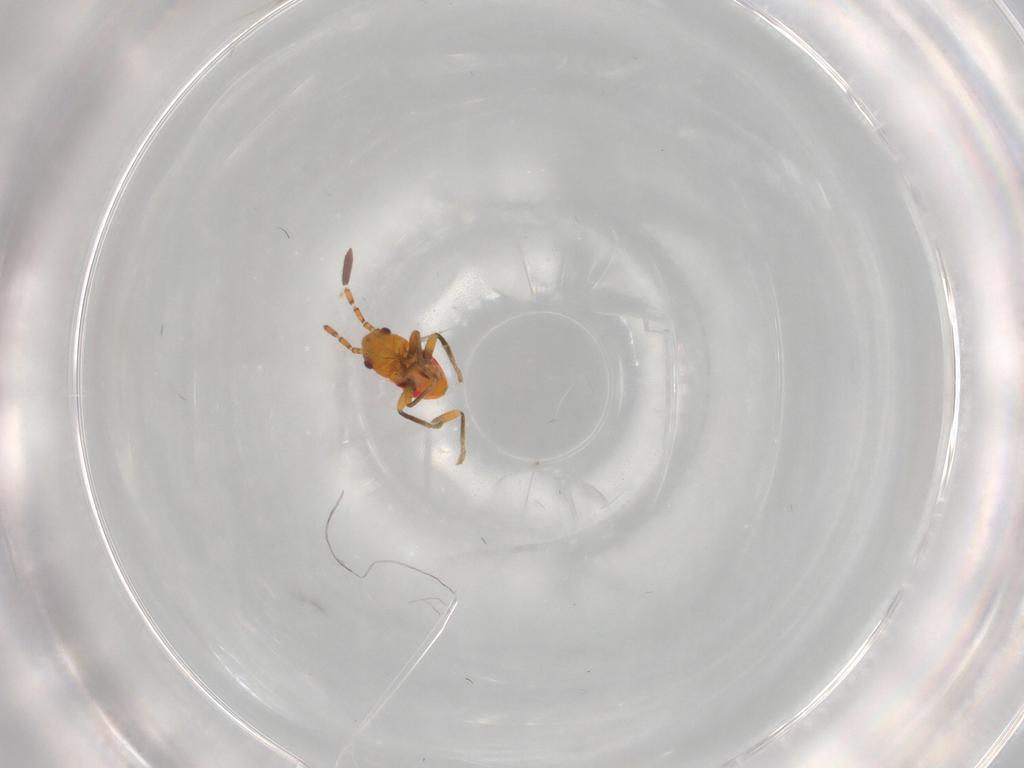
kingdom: Animalia
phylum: Arthropoda
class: Insecta
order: Hemiptera
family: Rhyparochromidae
